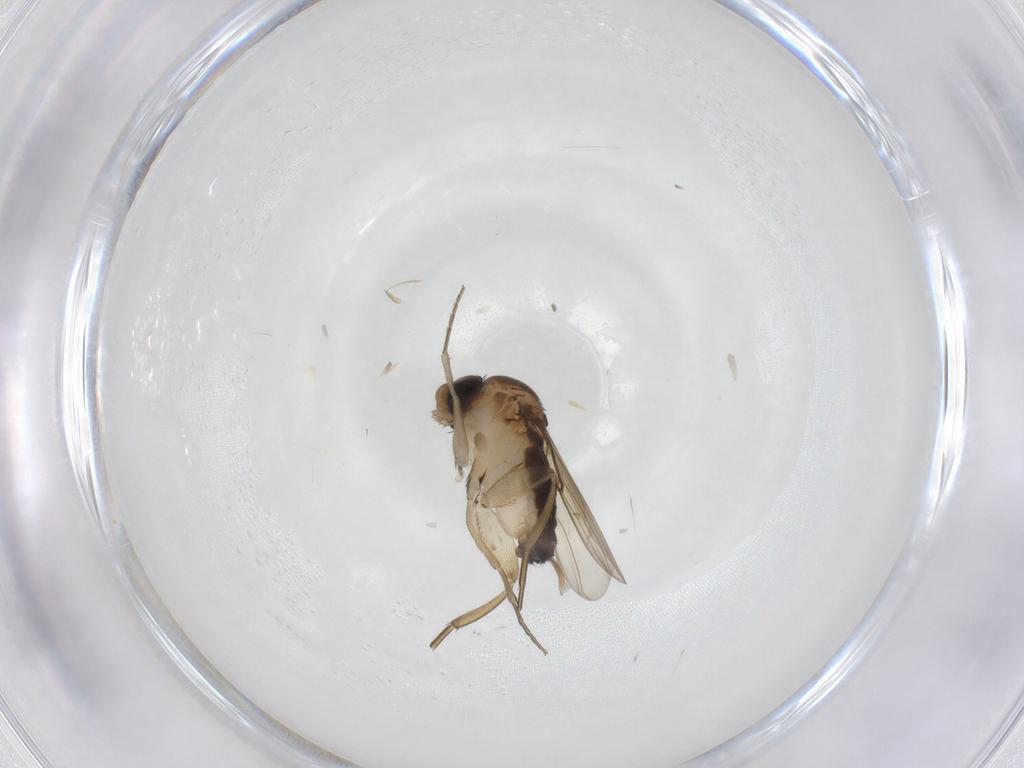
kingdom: Animalia
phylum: Arthropoda
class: Insecta
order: Diptera
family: Phoridae
